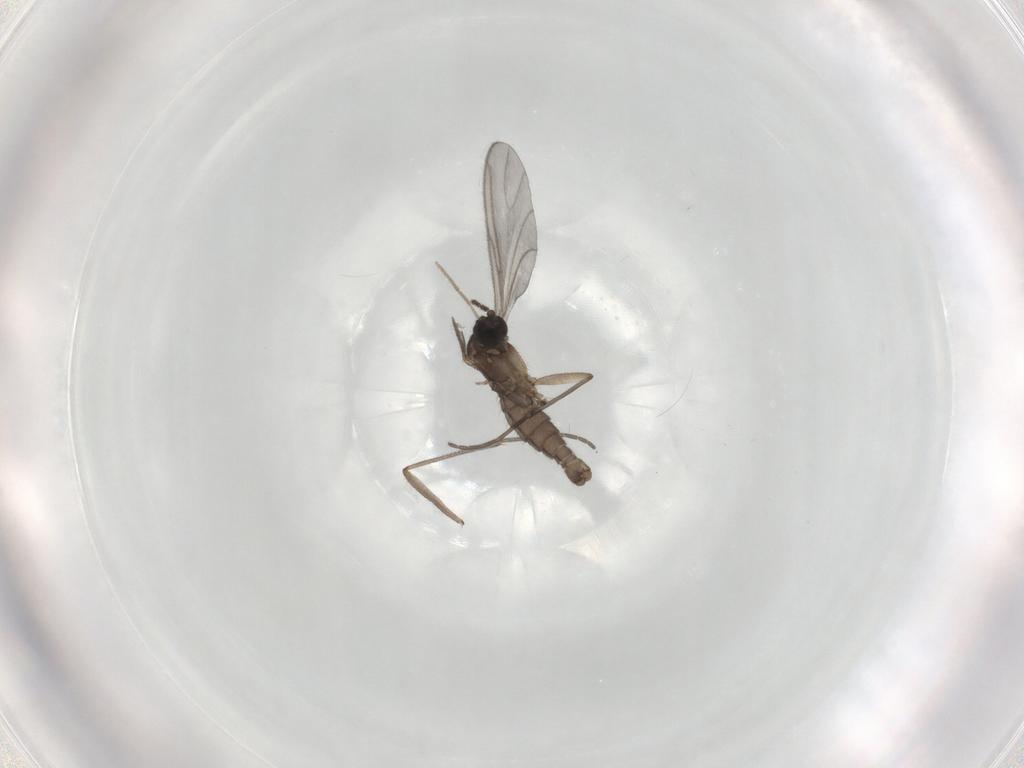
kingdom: Animalia
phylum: Arthropoda
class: Insecta
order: Diptera
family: Sciaridae
